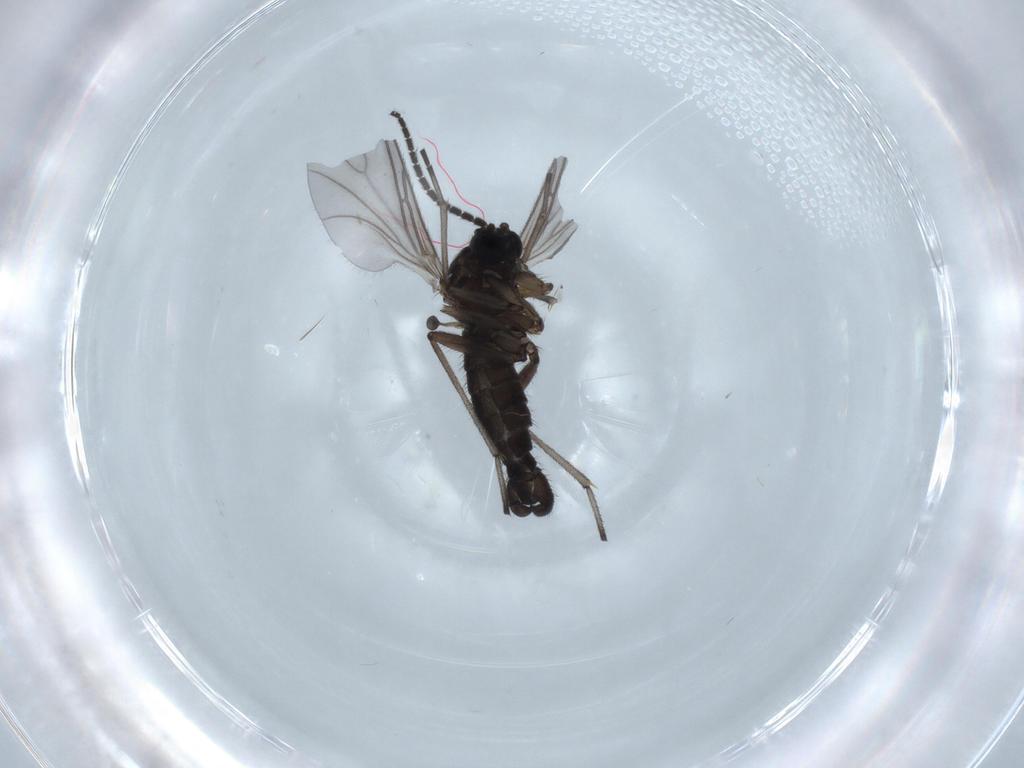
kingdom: Animalia
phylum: Arthropoda
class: Insecta
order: Diptera
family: Sciaridae
